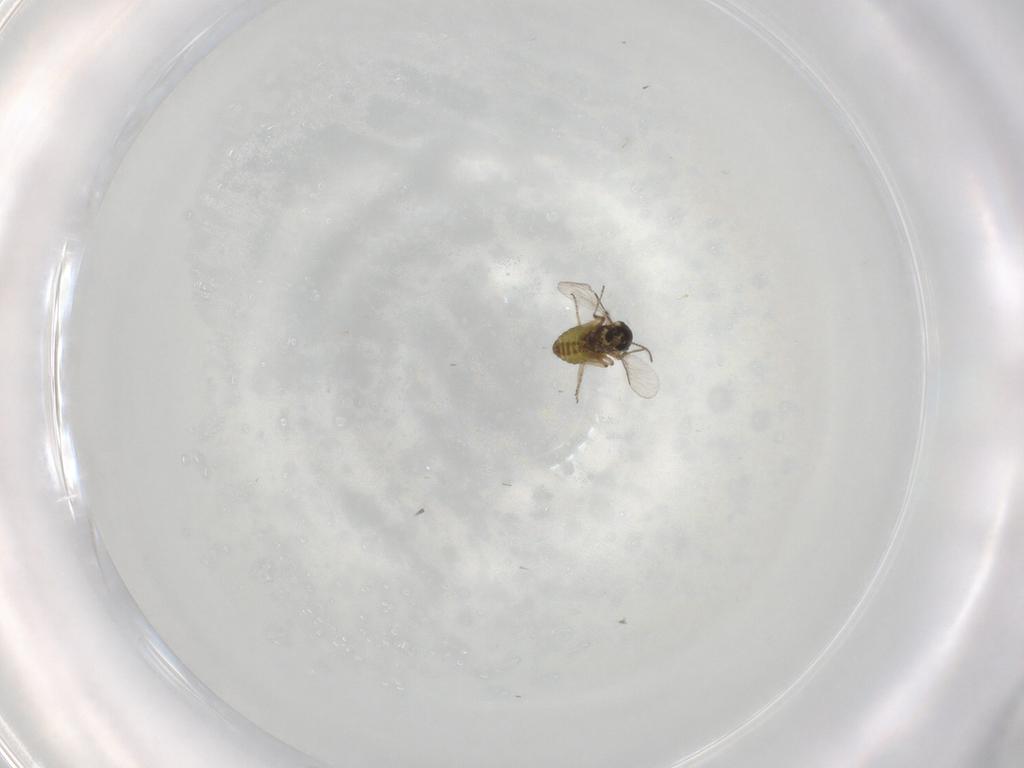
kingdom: Animalia
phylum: Arthropoda
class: Insecta
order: Diptera
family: Ceratopogonidae
